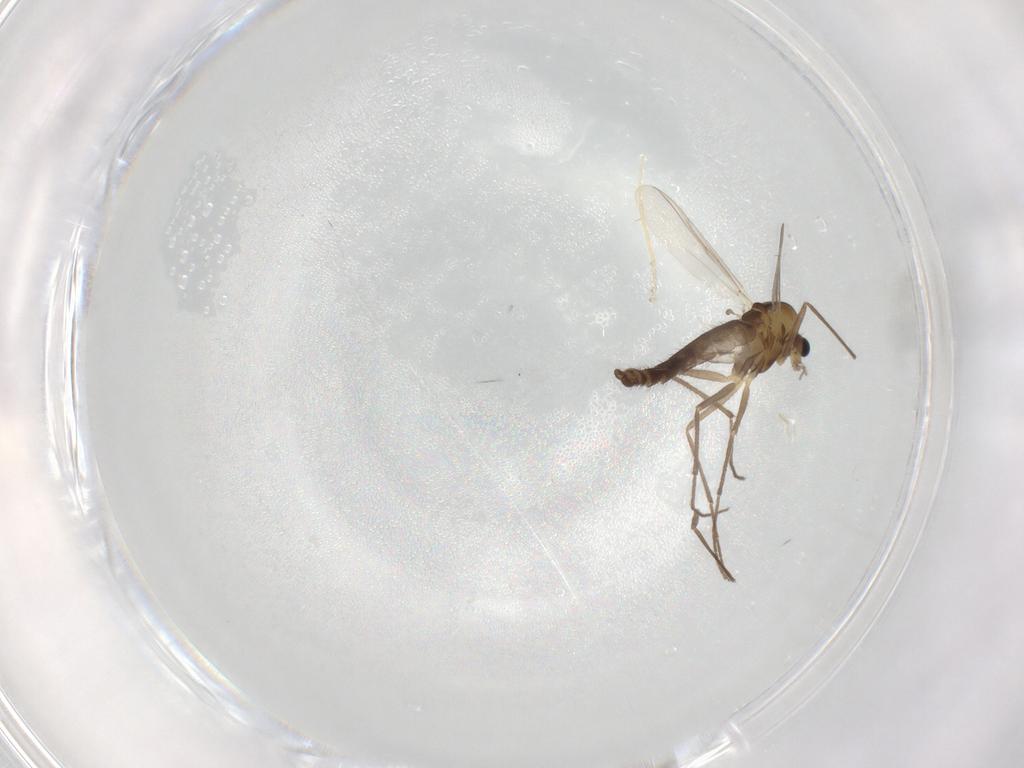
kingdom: Animalia
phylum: Arthropoda
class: Insecta
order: Diptera
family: Chironomidae
